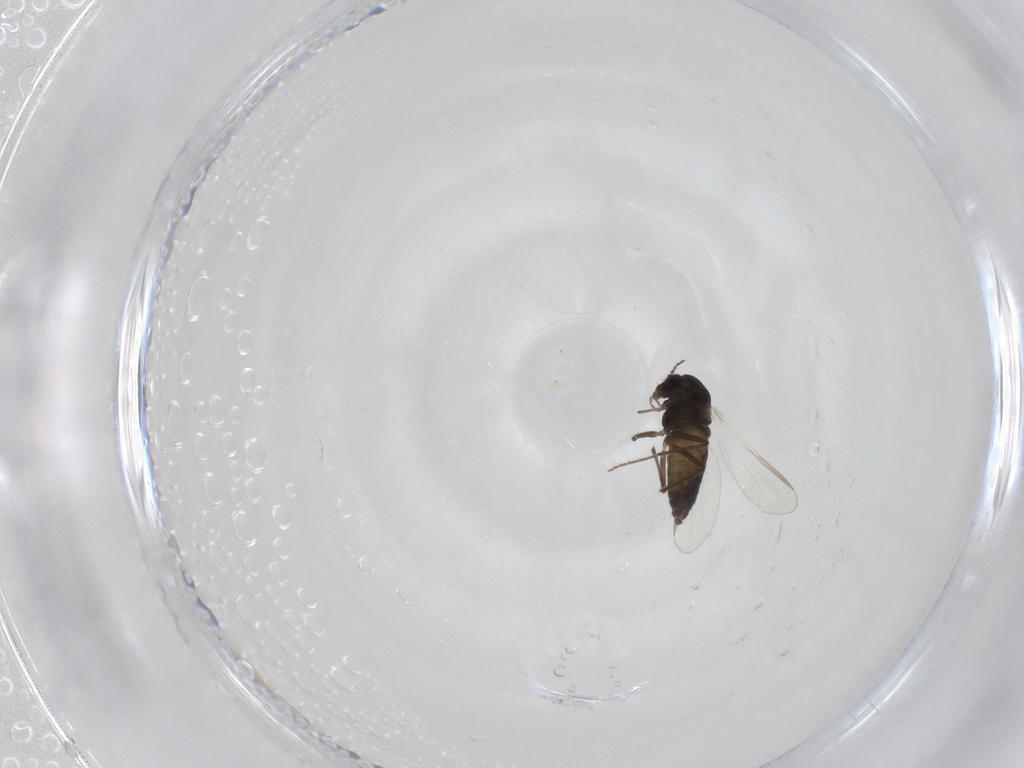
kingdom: Animalia
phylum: Arthropoda
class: Insecta
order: Diptera
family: Chironomidae
